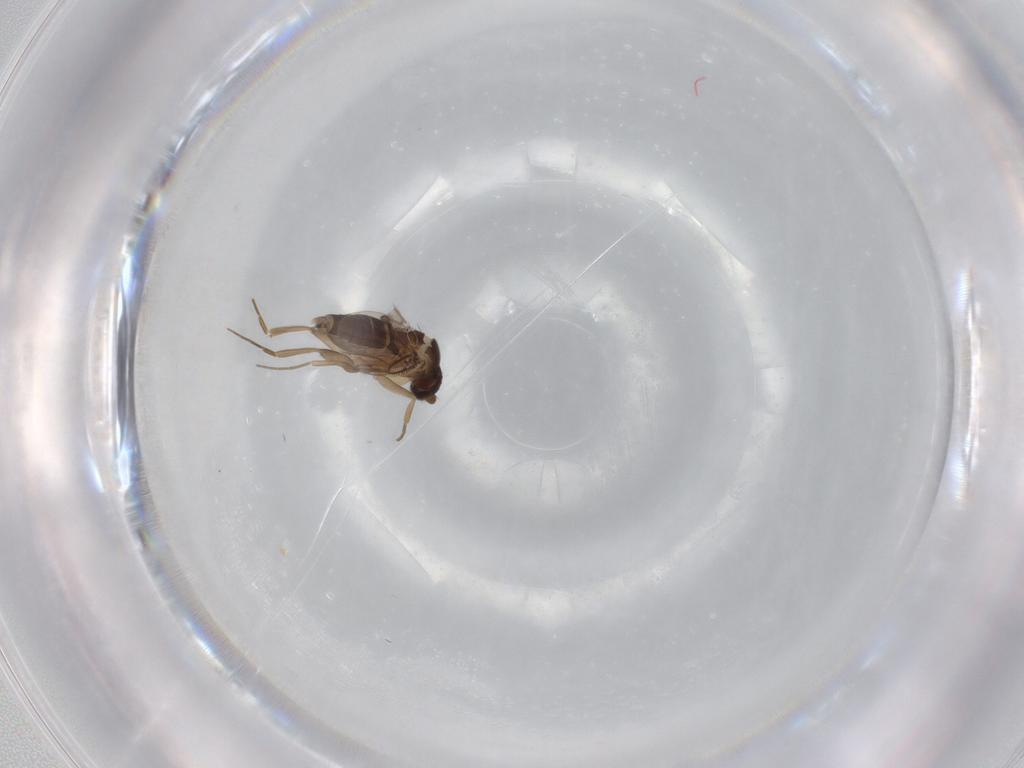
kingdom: Animalia
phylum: Arthropoda
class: Insecta
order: Diptera
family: Tabanidae
